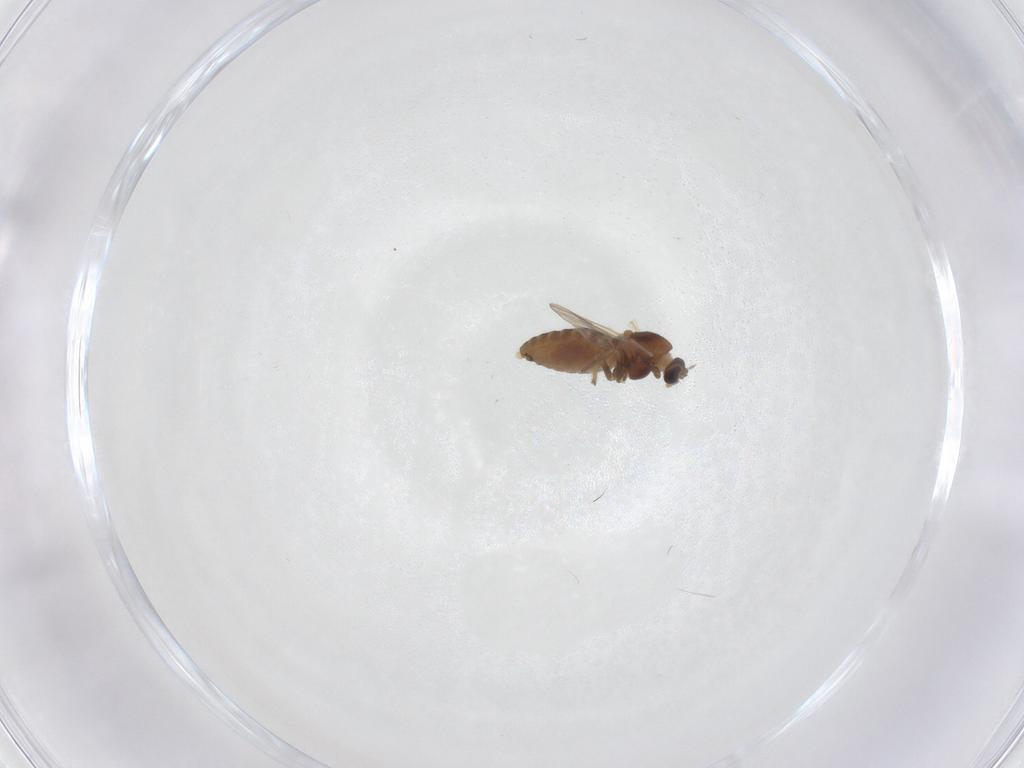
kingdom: Animalia
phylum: Arthropoda
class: Insecta
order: Diptera
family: Chironomidae
